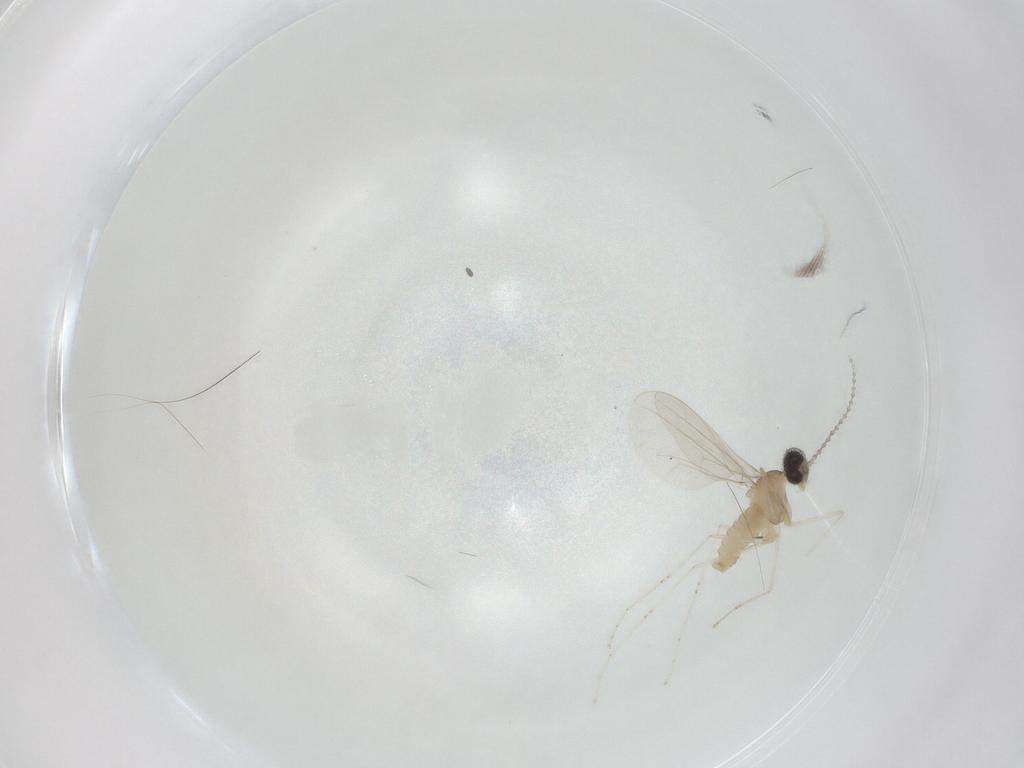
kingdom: Animalia
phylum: Arthropoda
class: Insecta
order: Diptera
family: Cecidomyiidae
